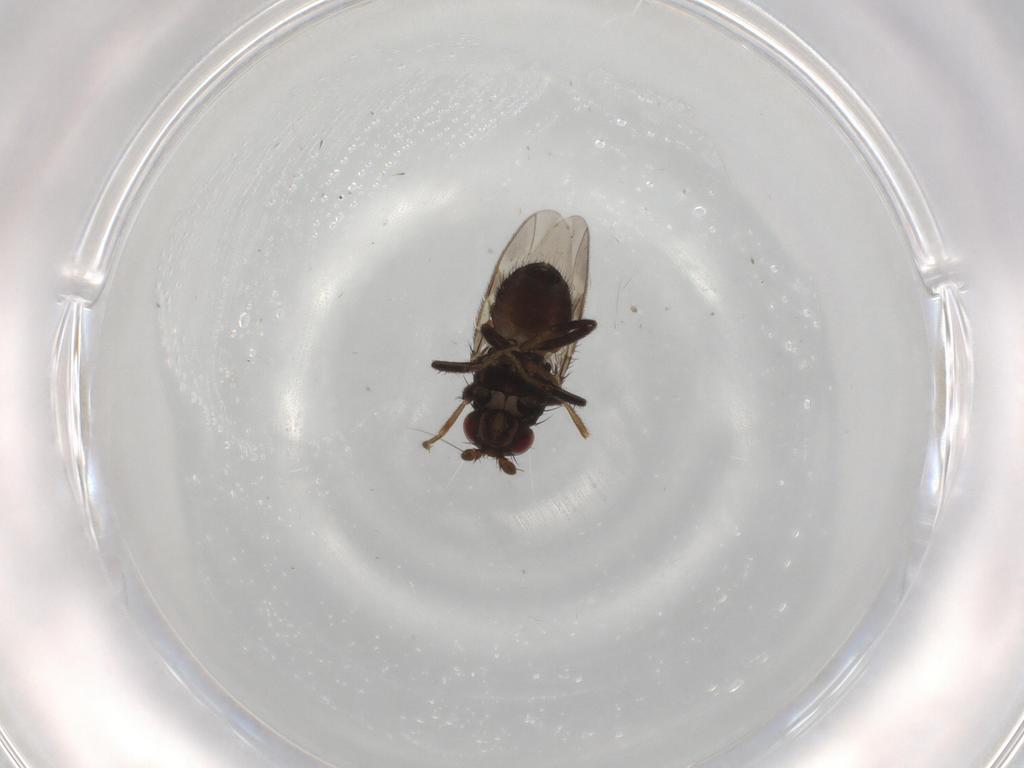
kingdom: Animalia
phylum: Arthropoda
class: Insecta
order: Diptera
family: Sphaeroceridae
